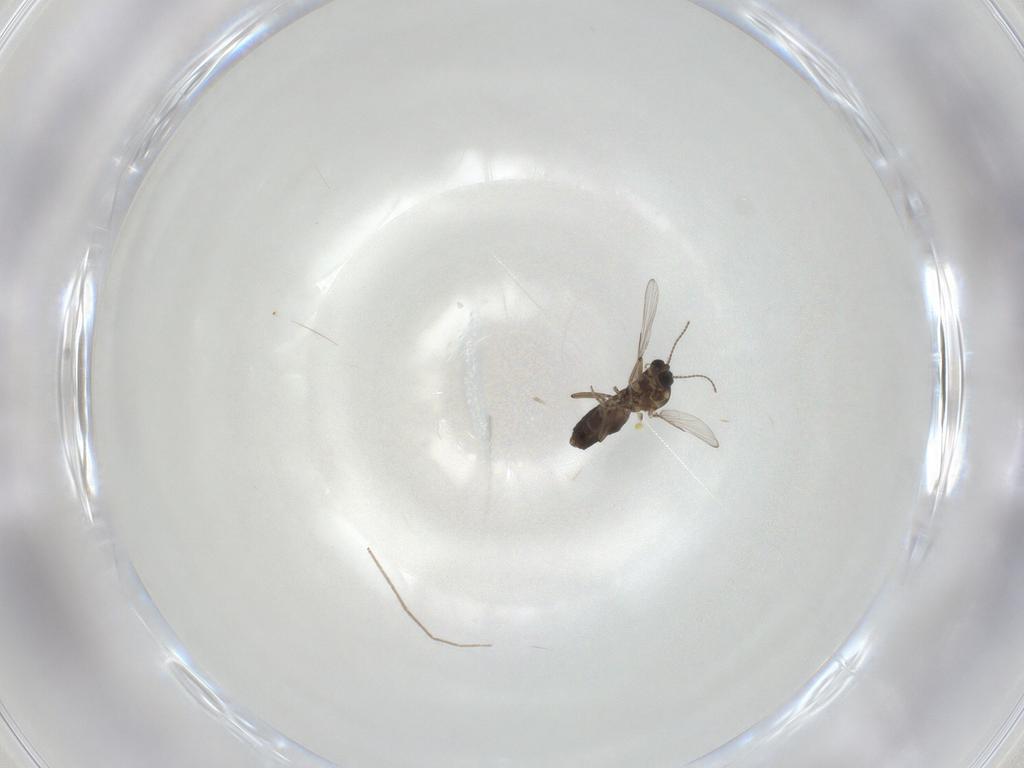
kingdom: Animalia
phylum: Arthropoda
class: Insecta
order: Diptera
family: Ceratopogonidae
